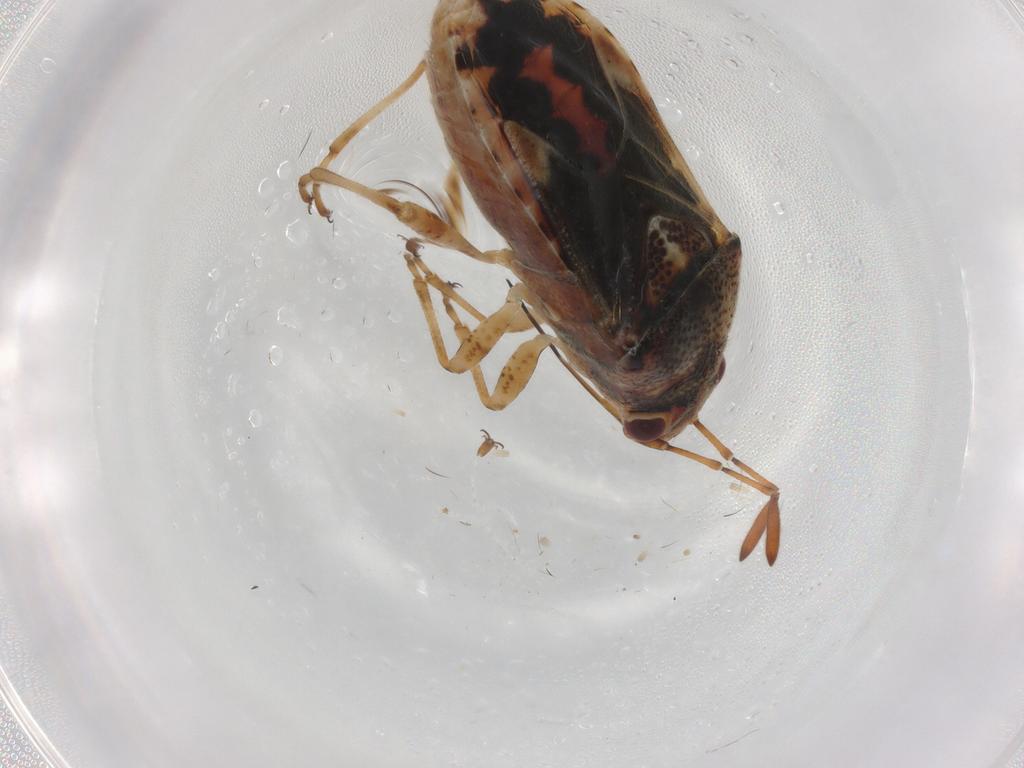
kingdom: Animalia
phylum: Arthropoda
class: Insecta
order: Hemiptera
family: Lygaeidae
